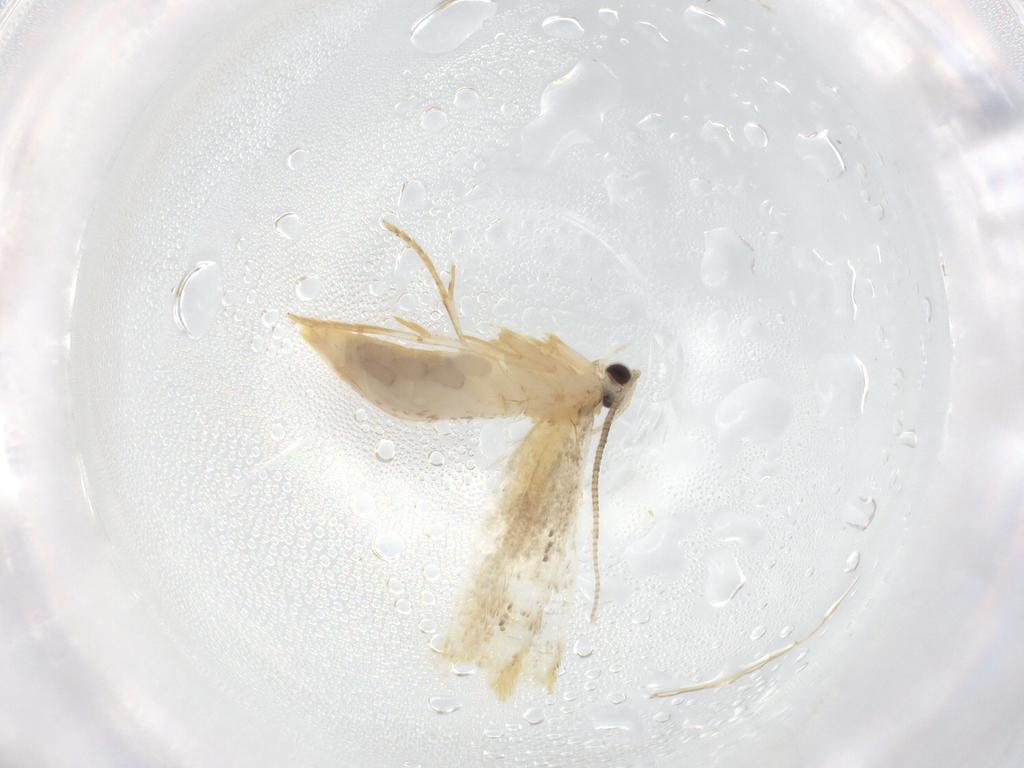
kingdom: Animalia
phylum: Arthropoda
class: Insecta
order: Lepidoptera
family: Tineidae
